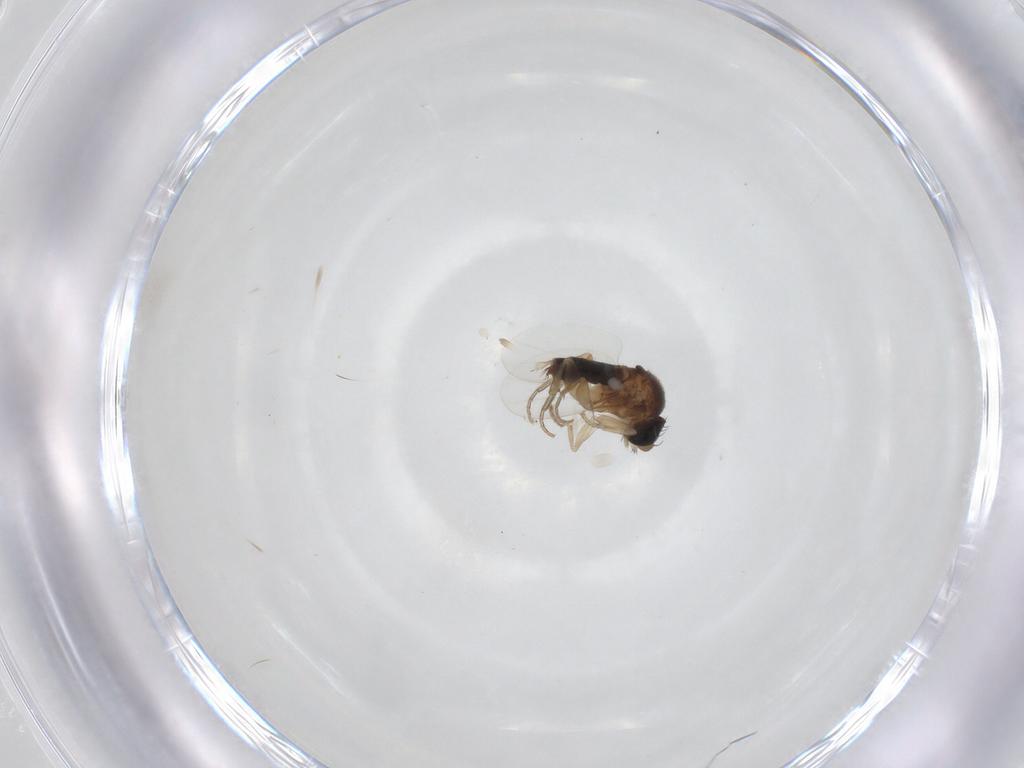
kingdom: Animalia
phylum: Arthropoda
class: Insecta
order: Diptera
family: Phoridae
